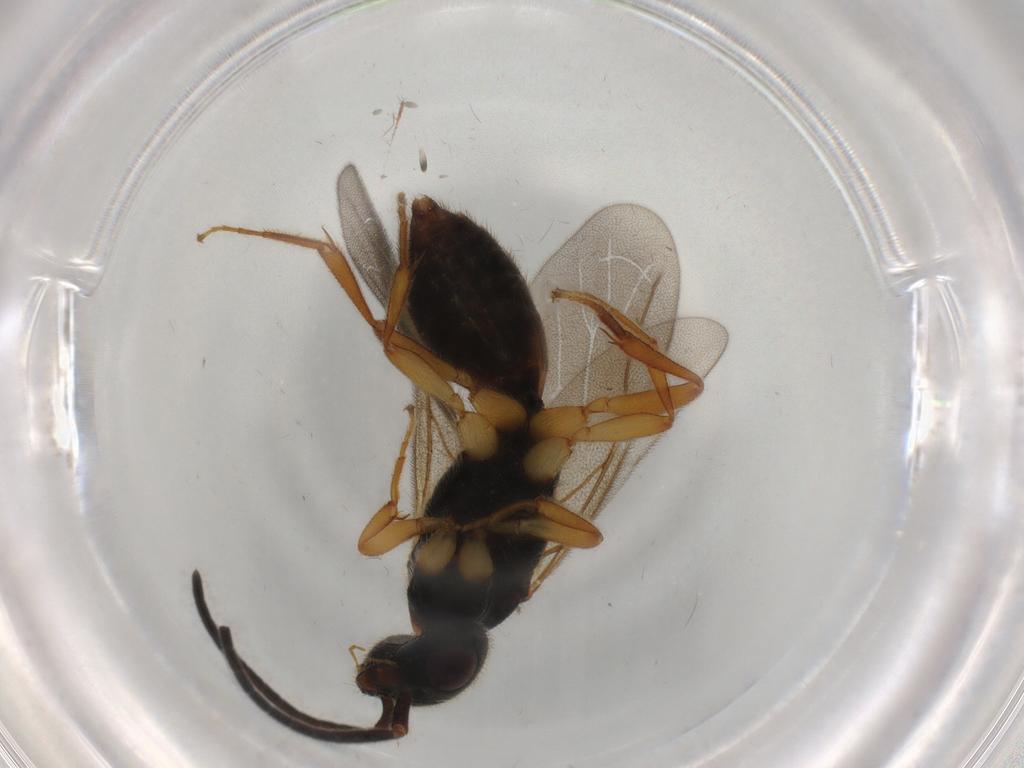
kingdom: Animalia
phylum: Arthropoda
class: Insecta
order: Hymenoptera
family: Bethylidae
